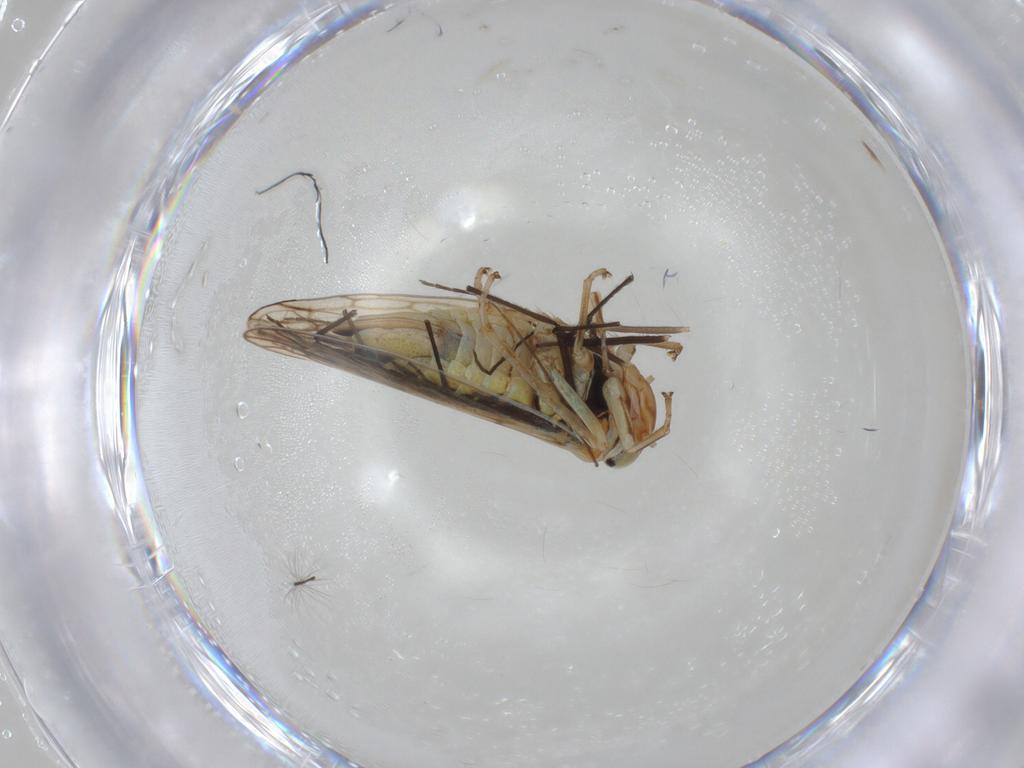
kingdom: Animalia
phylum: Arthropoda
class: Insecta
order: Hemiptera
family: Cicadellidae
